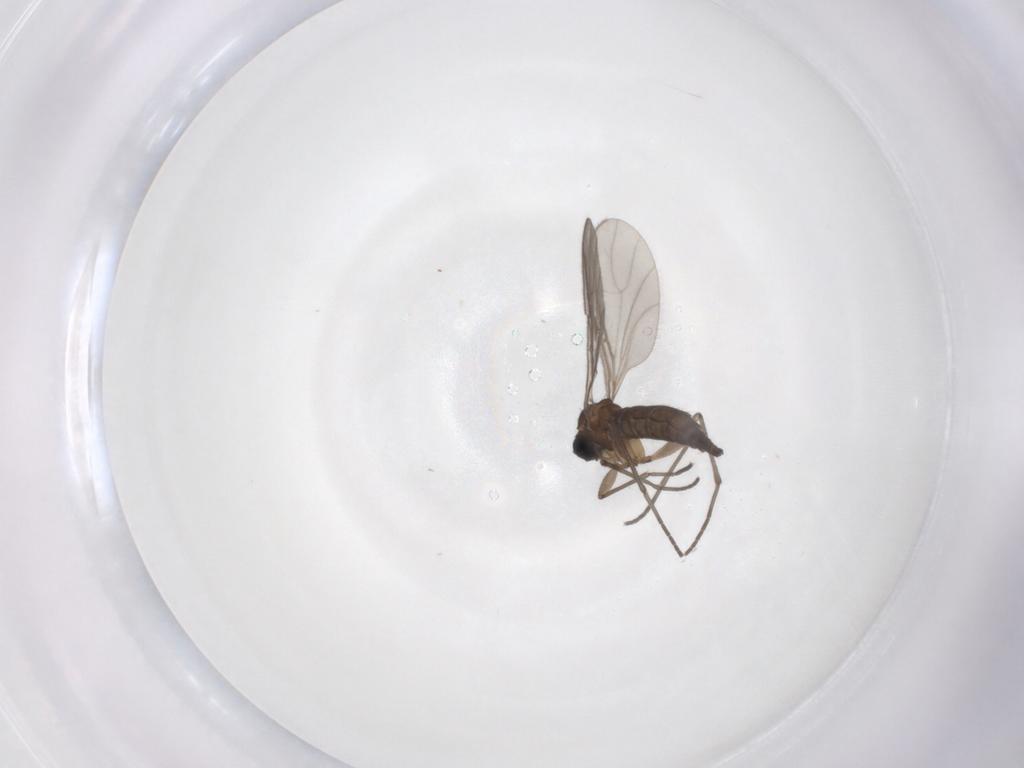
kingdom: Animalia
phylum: Arthropoda
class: Insecta
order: Diptera
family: Sciaridae
